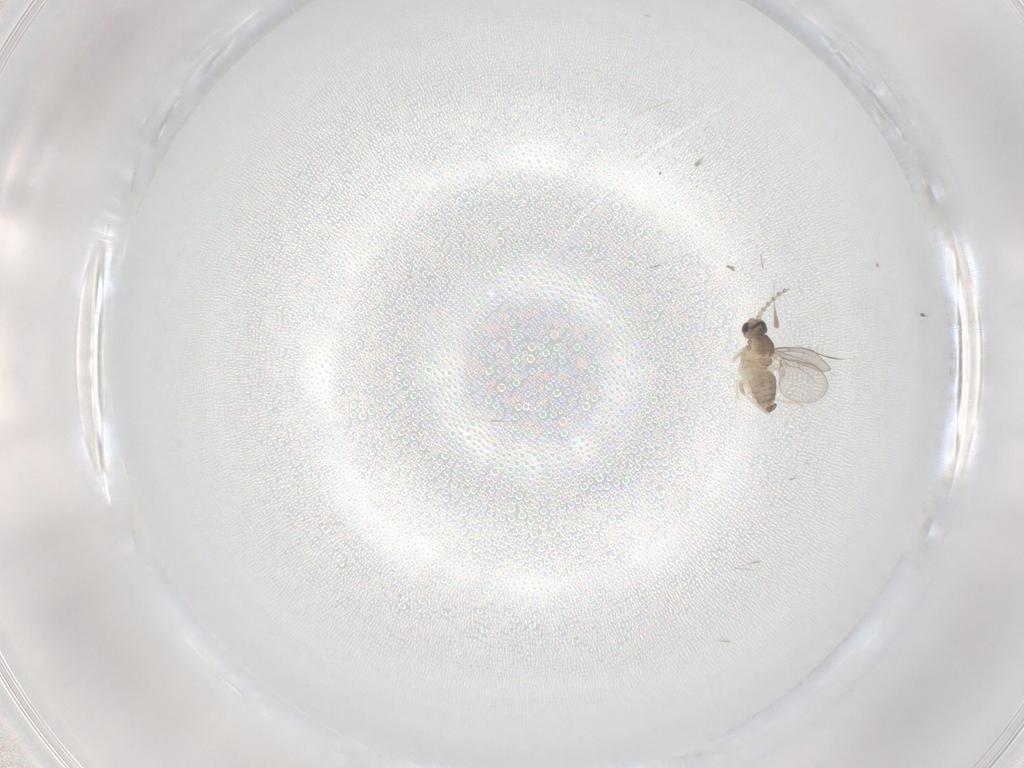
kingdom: Animalia
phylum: Arthropoda
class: Insecta
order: Diptera
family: Cecidomyiidae
